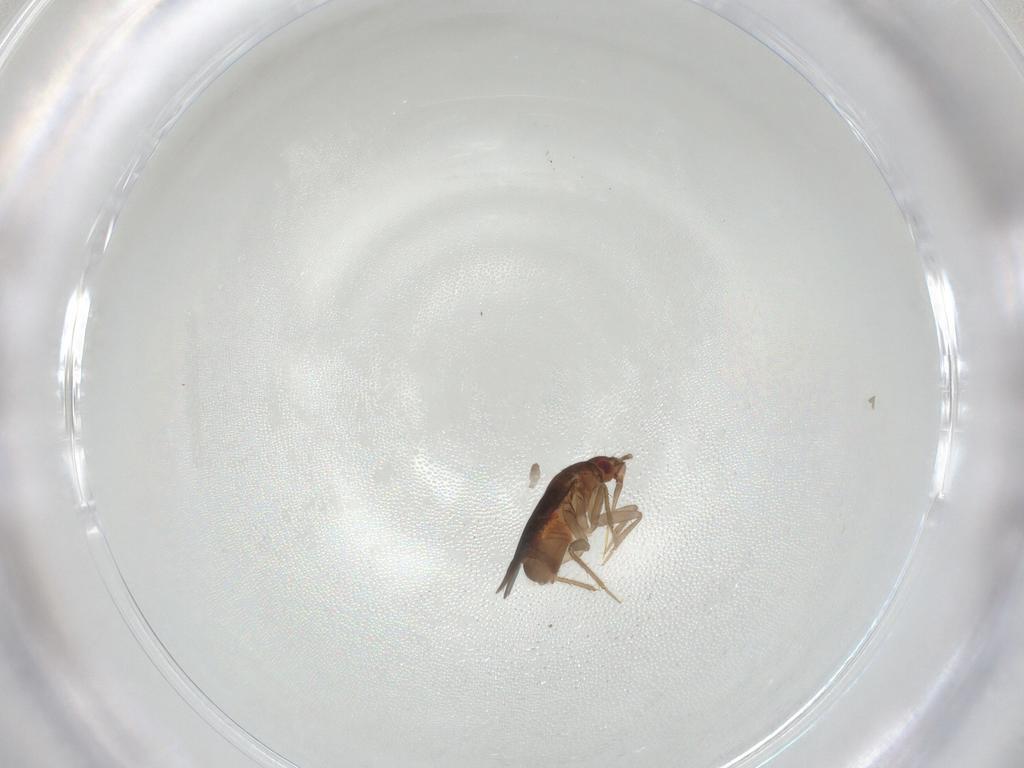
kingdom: Animalia
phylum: Arthropoda
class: Insecta
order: Hemiptera
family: Ceratocombidae
